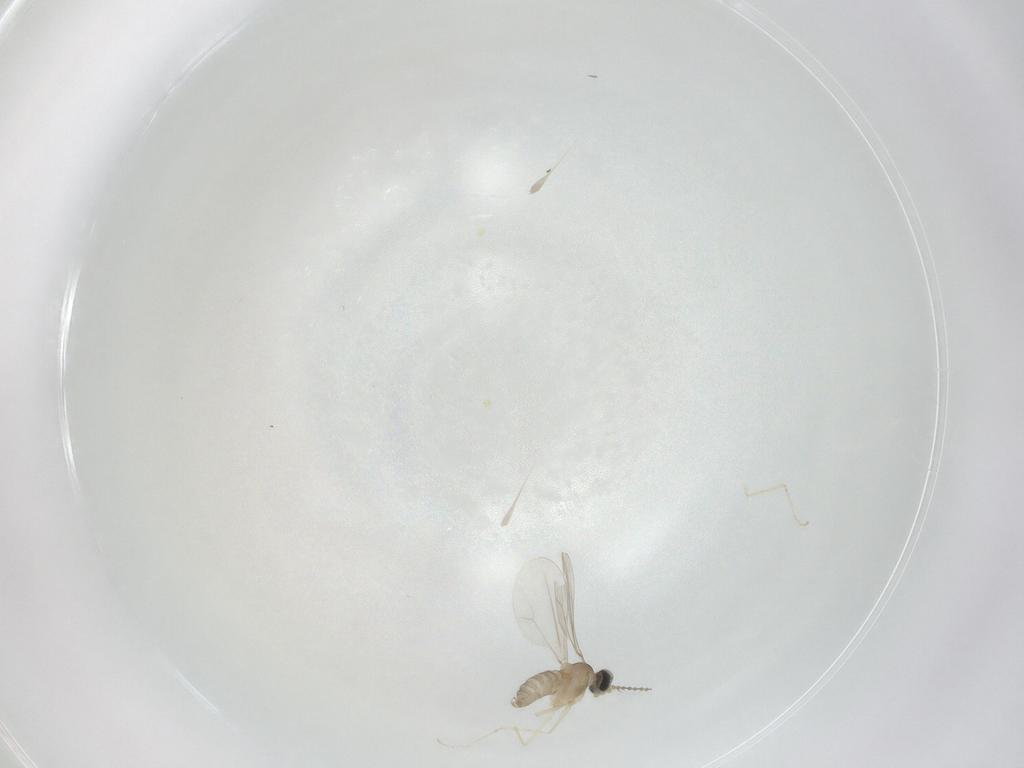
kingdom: Animalia
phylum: Arthropoda
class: Insecta
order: Diptera
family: Cecidomyiidae
